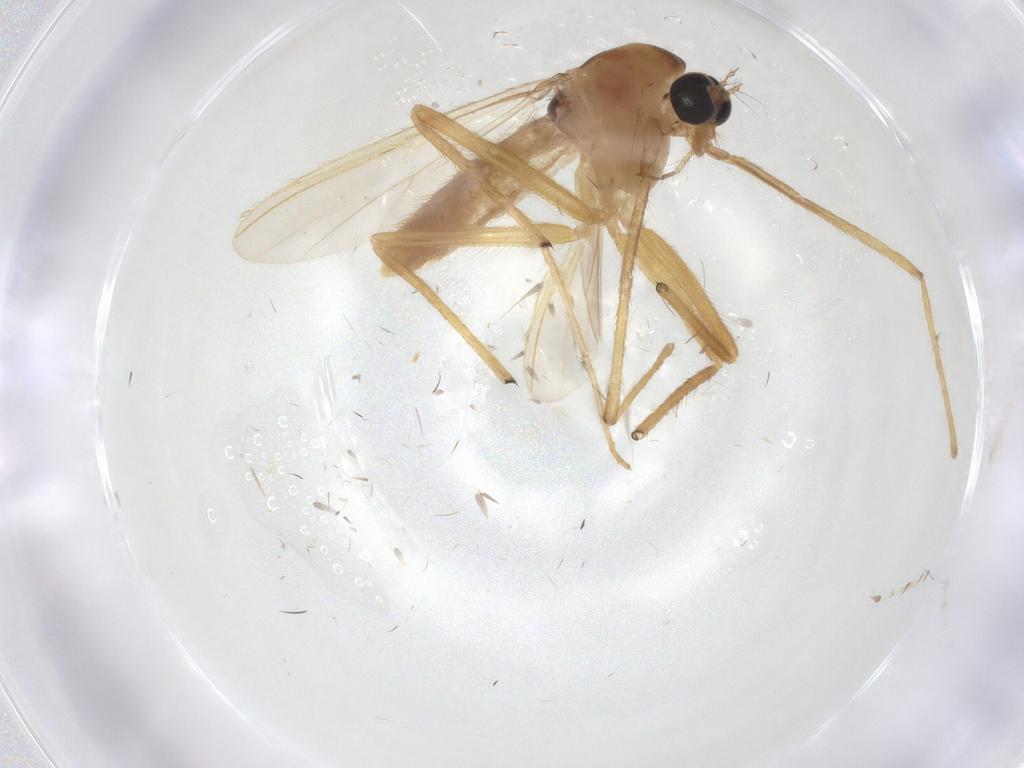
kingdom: Animalia
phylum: Arthropoda
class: Insecta
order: Diptera
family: Chironomidae
